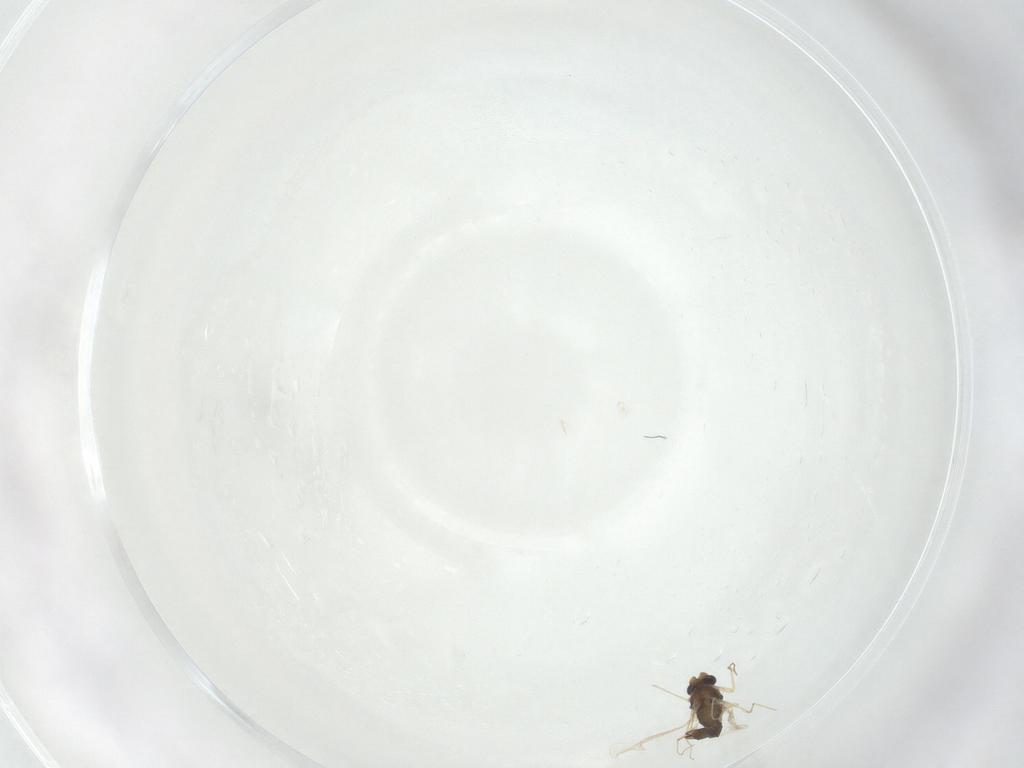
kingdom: Animalia
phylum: Arthropoda
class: Insecta
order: Diptera
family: Chironomidae
